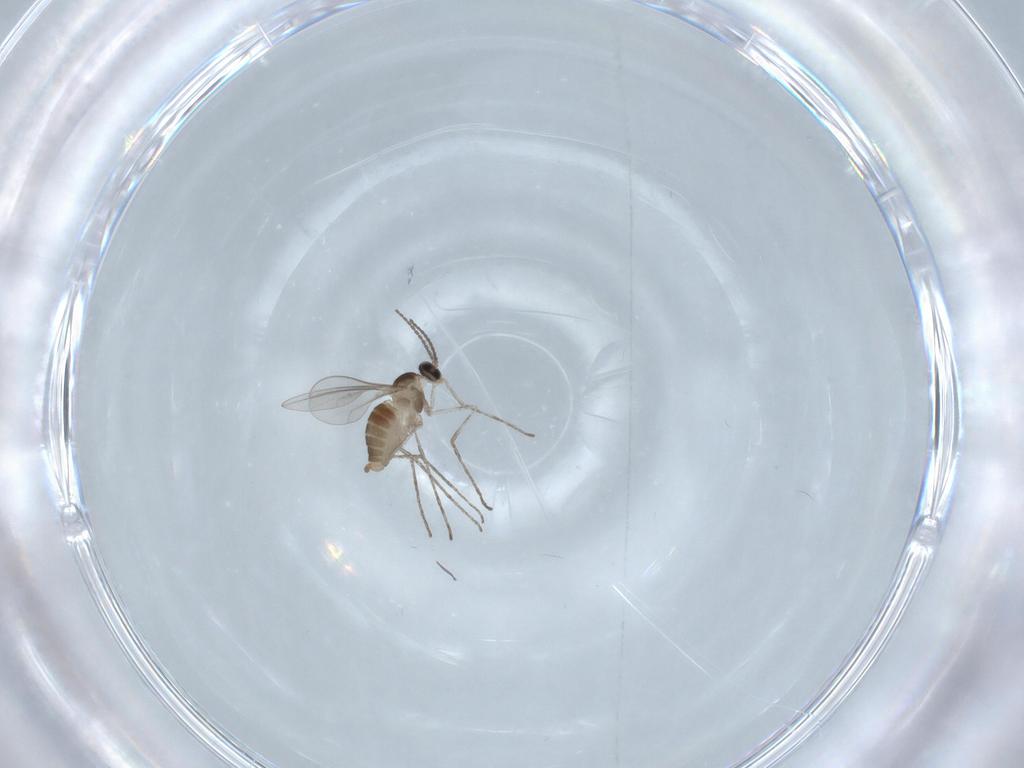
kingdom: Animalia
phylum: Arthropoda
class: Insecta
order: Diptera
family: Cecidomyiidae
